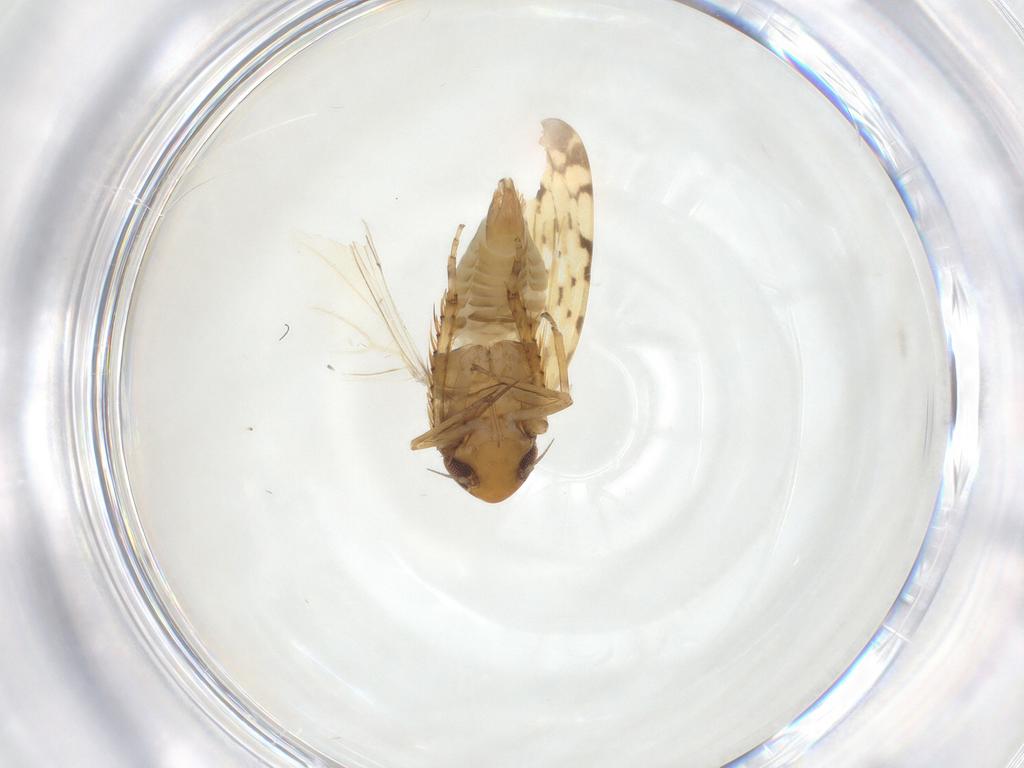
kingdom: Animalia
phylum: Arthropoda
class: Insecta
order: Hemiptera
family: Cicadellidae
